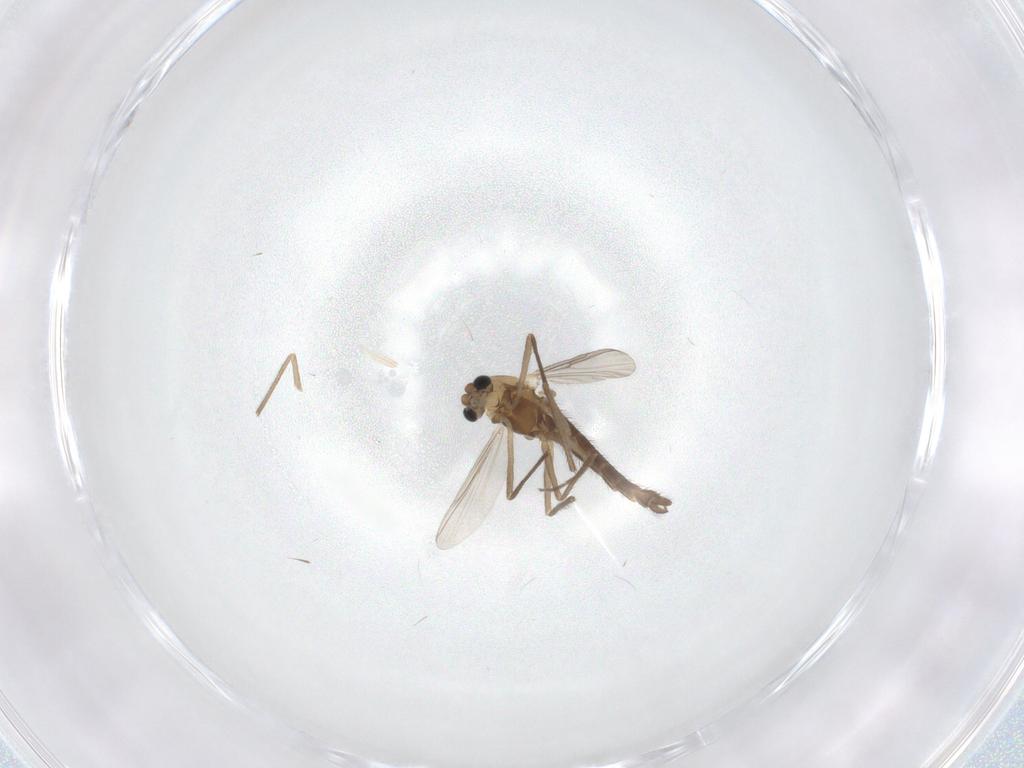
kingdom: Animalia
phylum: Arthropoda
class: Insecta
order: Diptera
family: Chironomidae
